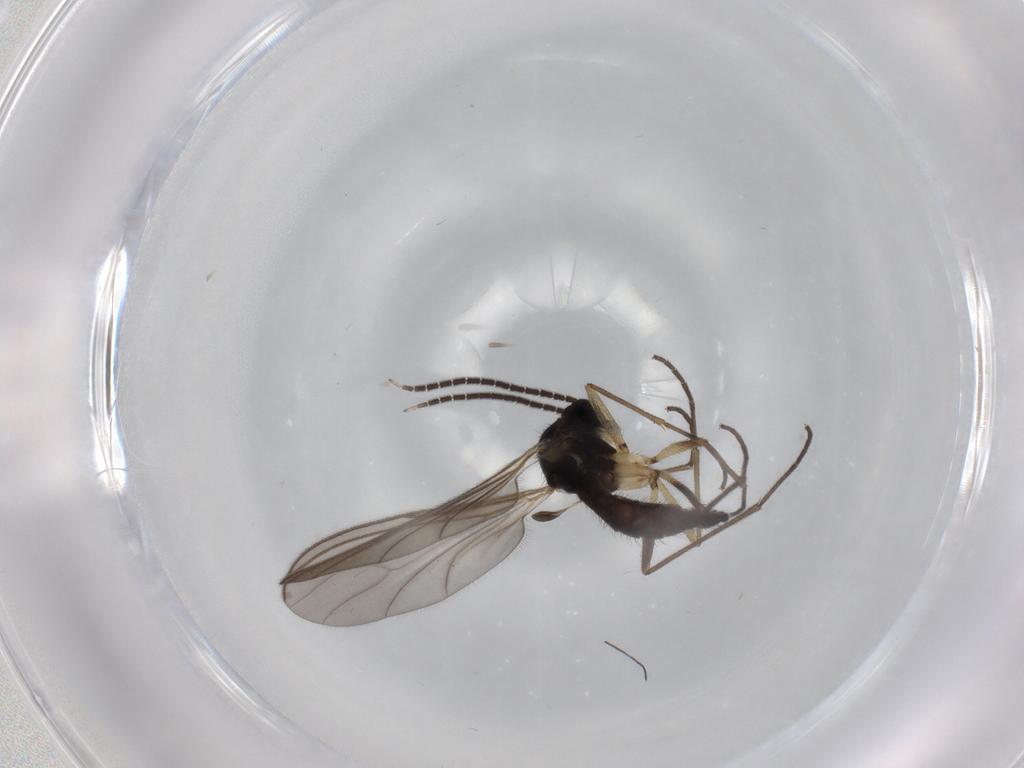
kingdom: Animalia
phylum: Arthropoda
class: Insecta
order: Diptera
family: Sciaridae
